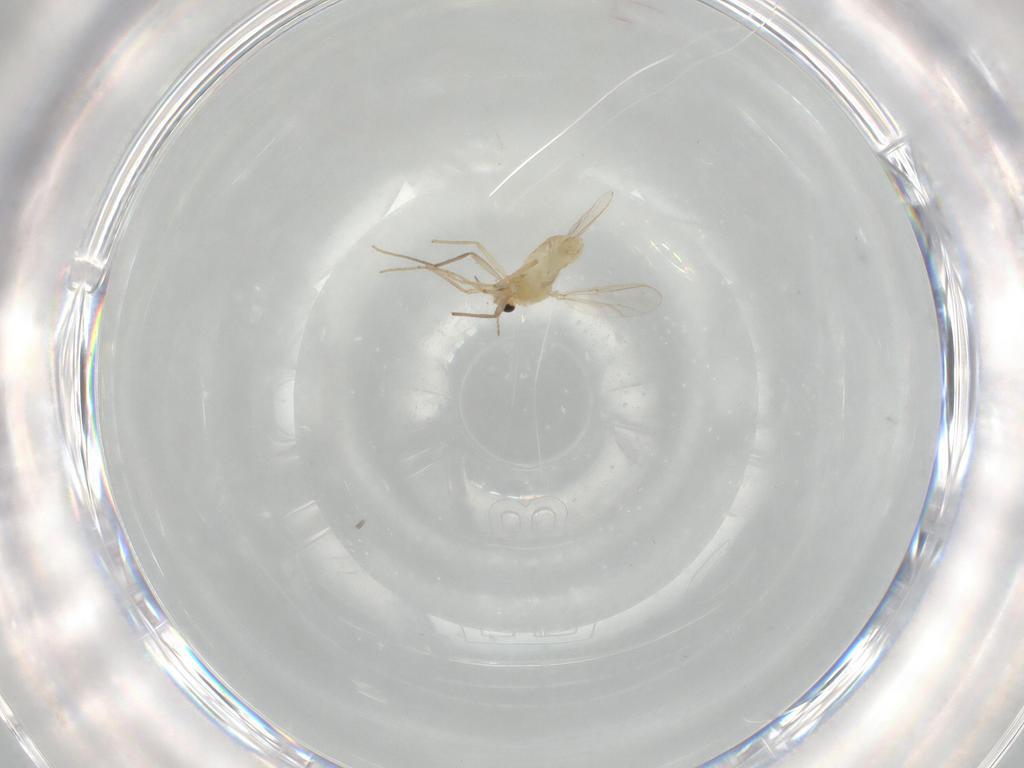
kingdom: Animalia
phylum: Arthropoda
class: Insecta
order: Diptera
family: Chironomidae
